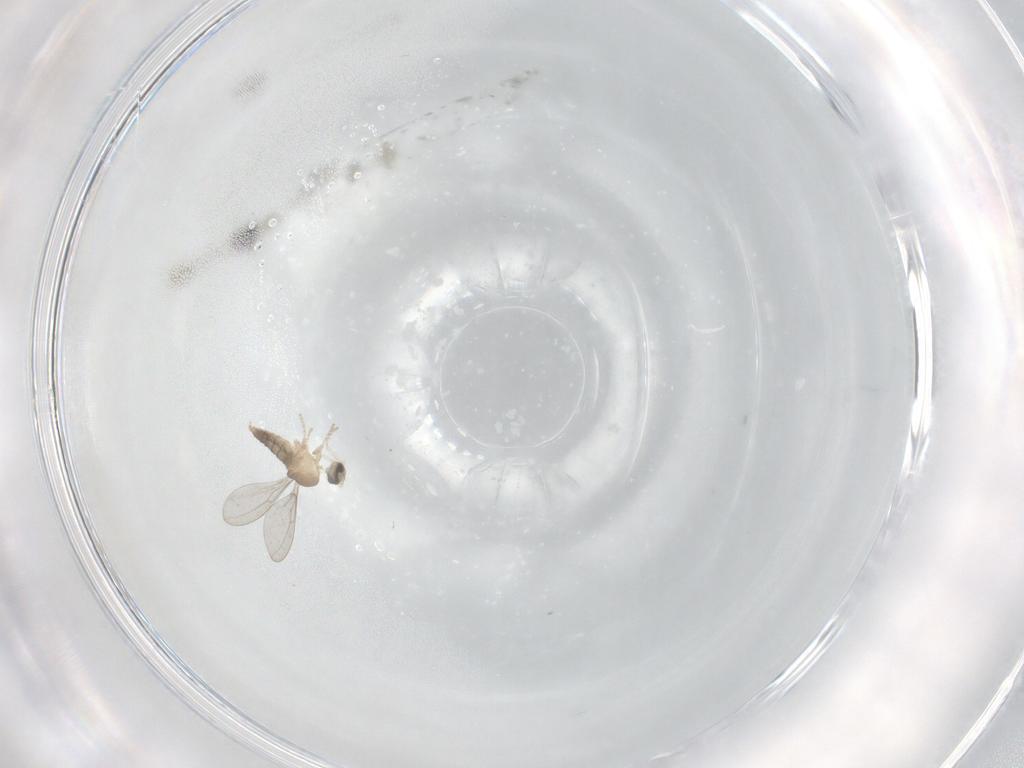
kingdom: Animalia
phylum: Arthropoda
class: Insecta
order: Diptera
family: Cecidomyiidae
